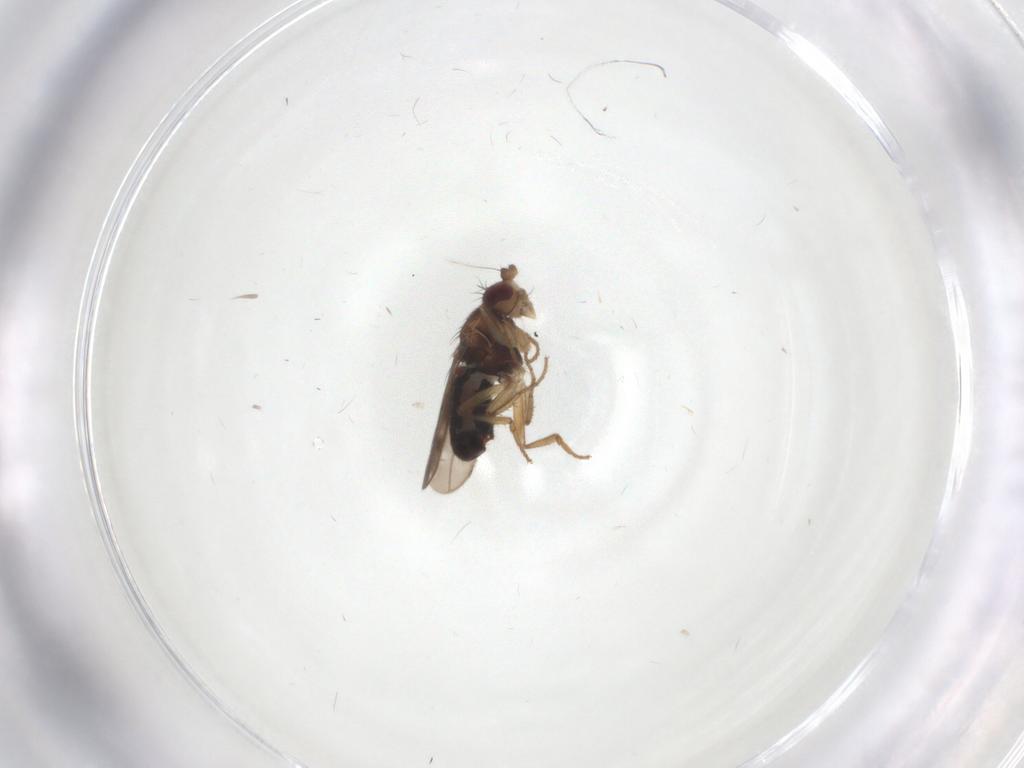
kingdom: Animalia
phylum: Arthropoda
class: Insecta
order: Diptera
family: Sphaeroceridae
